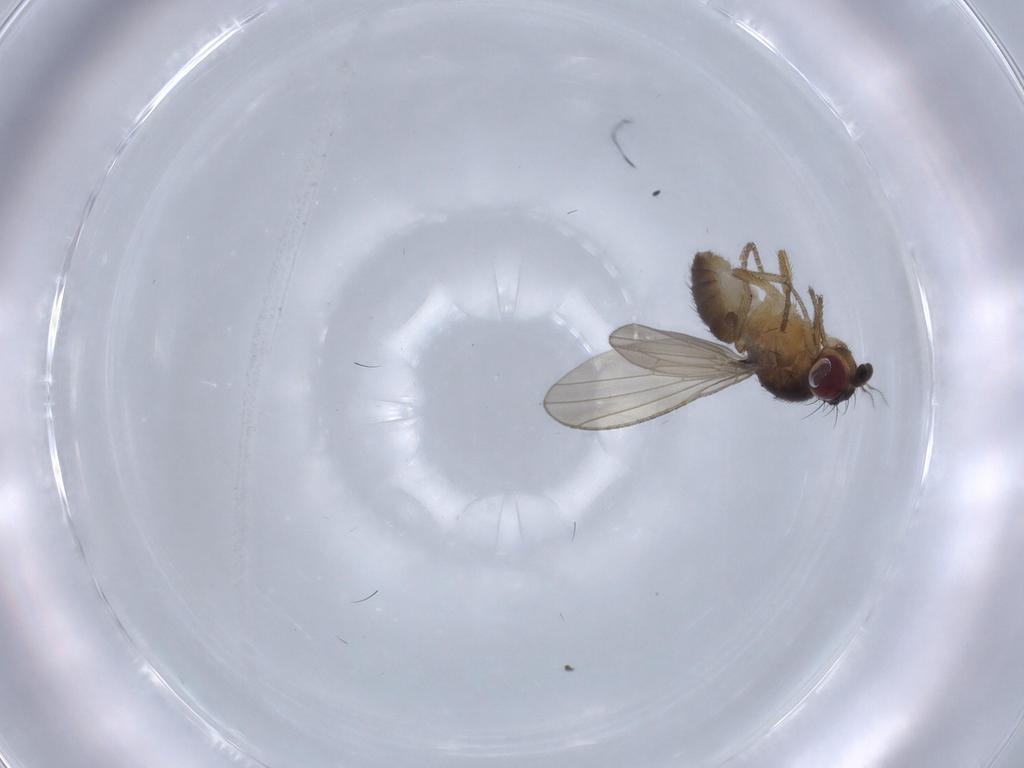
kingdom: Animalia
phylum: Arthropoda
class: Insecta
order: Diptera
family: Lauxaniidae
